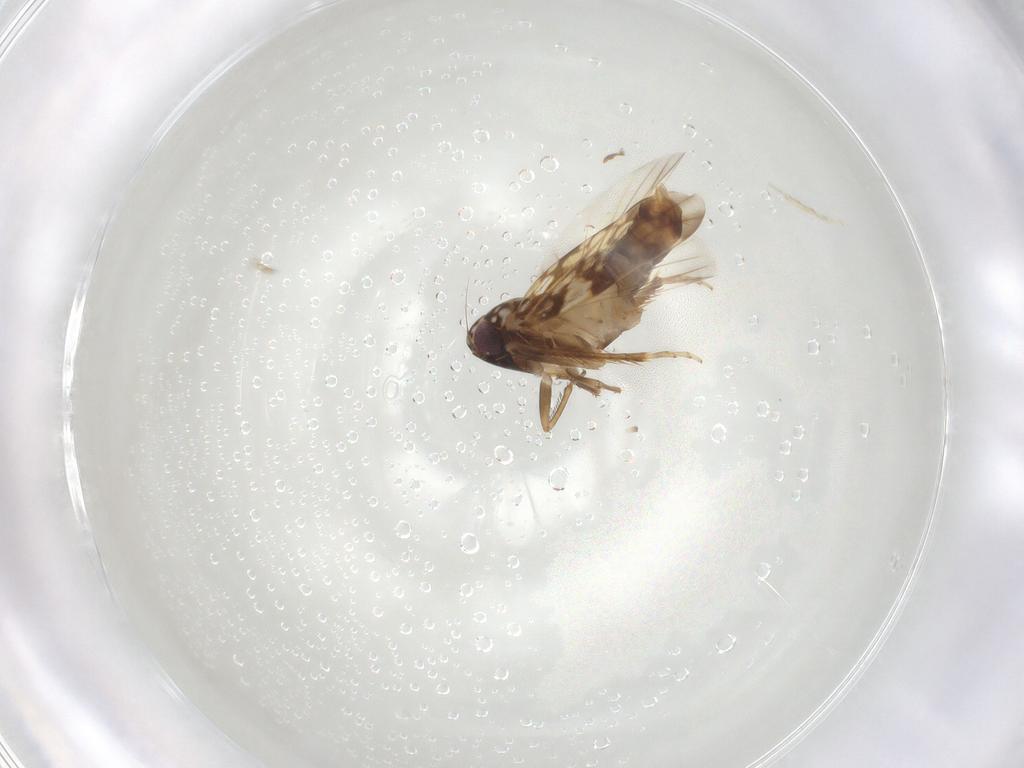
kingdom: Animalia
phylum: Arthropoda
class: Insecta
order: Hemiptera
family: Cicadellidae
